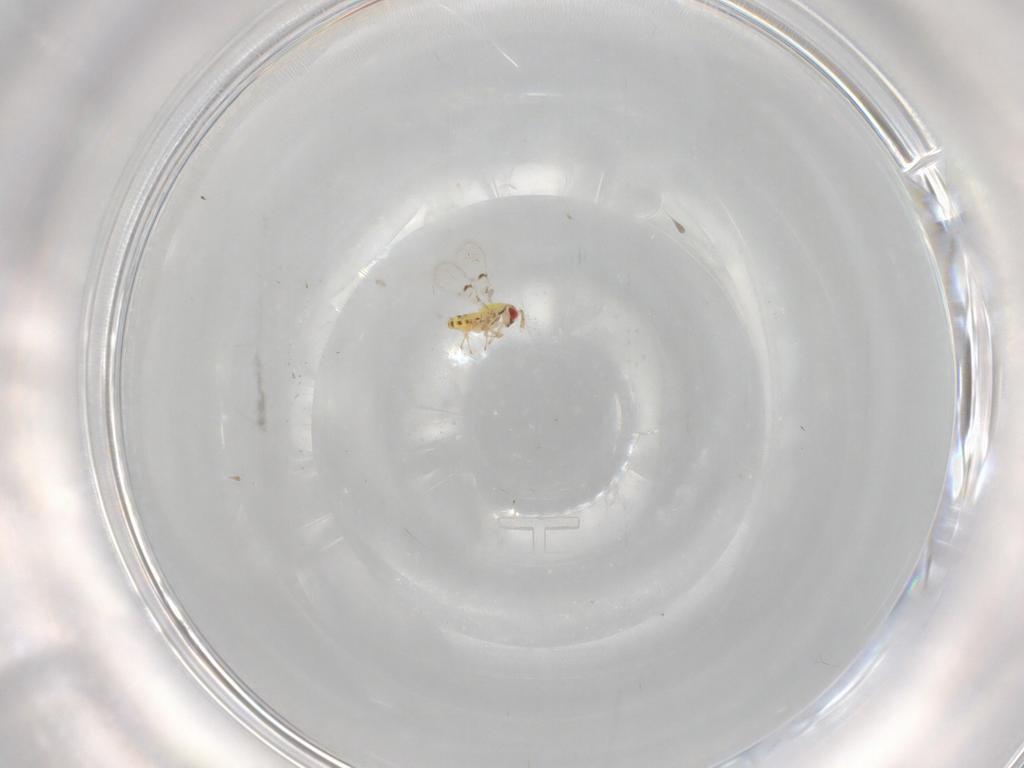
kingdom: Animalia
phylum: Arthropoda
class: Insecta
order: Hymenoptera
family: Trichogrammatidae
